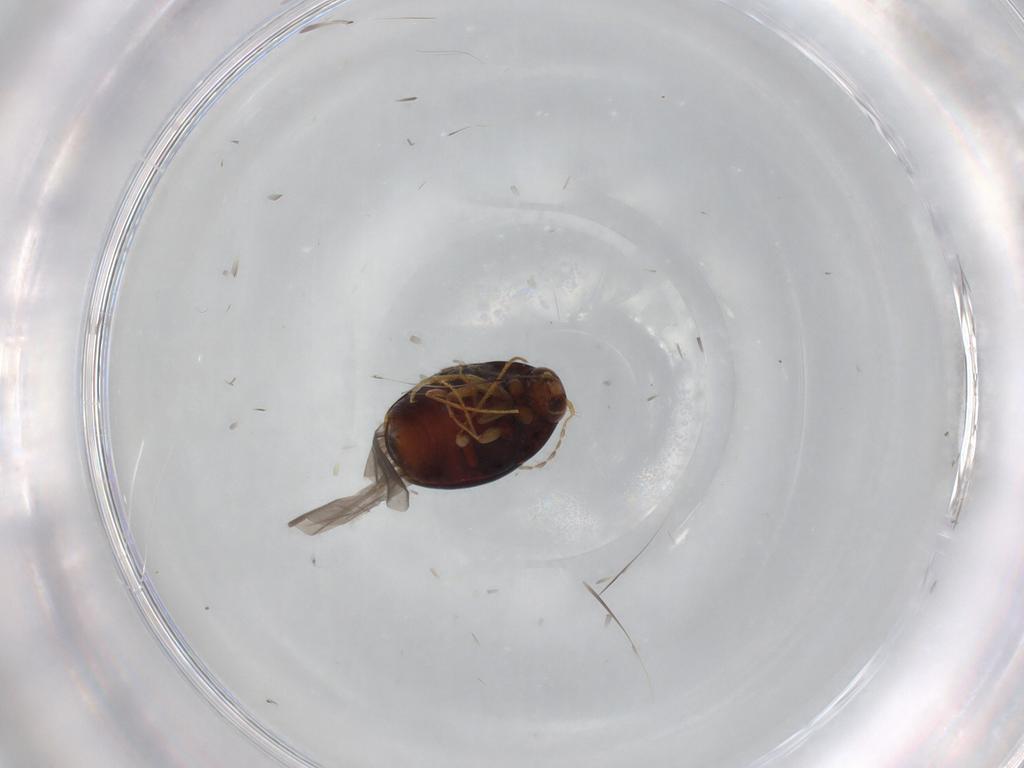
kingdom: Animalia
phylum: Arthropoda
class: Insecta
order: Coleoptera
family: Staphylinidae
